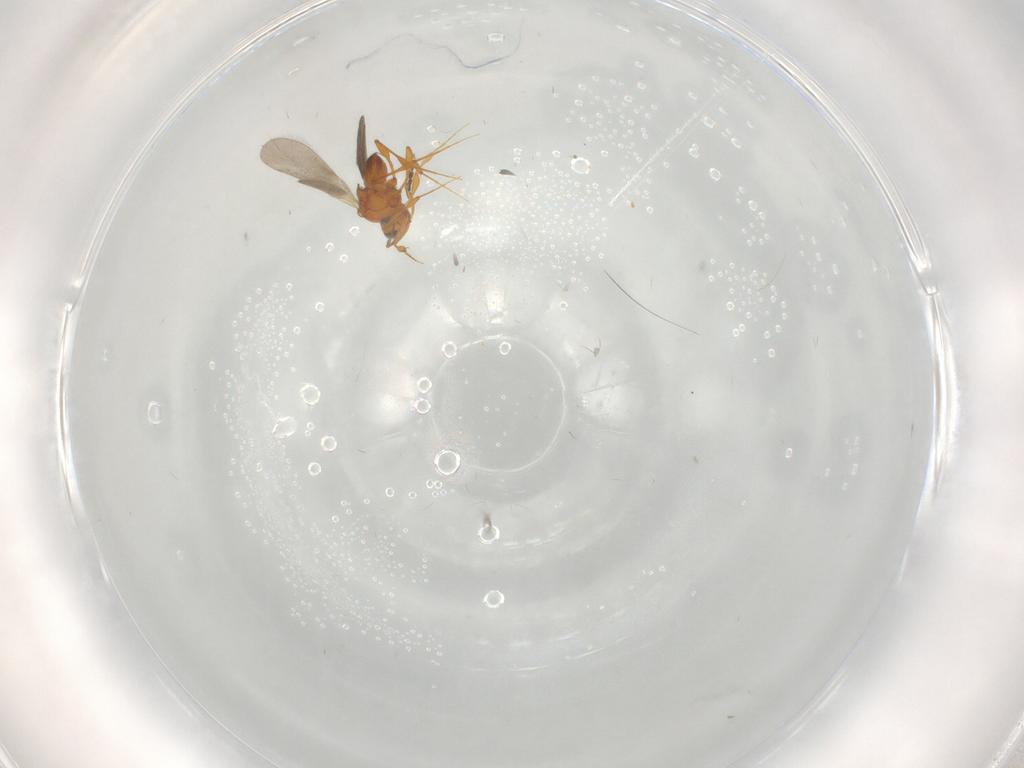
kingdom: Animalia
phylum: Arthropoda
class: Insecta
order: Hymenoptera
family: Platygastridae
